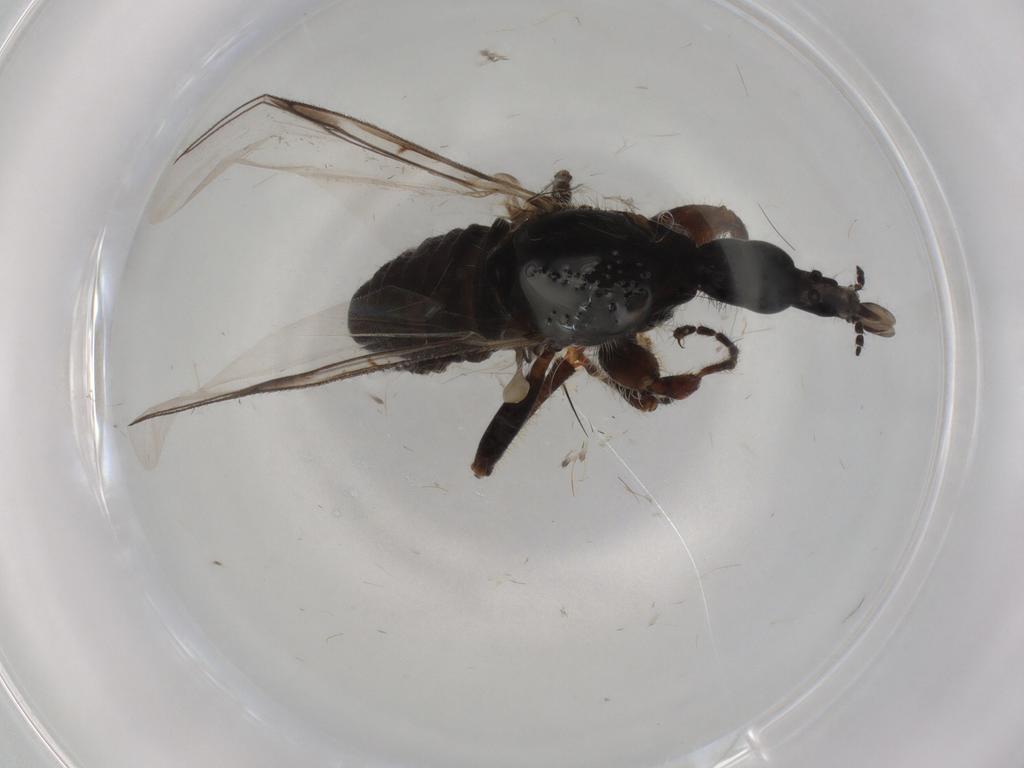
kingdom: Animalia
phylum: Arthropoda
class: Insecta
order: Diptera
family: Bibionidae
